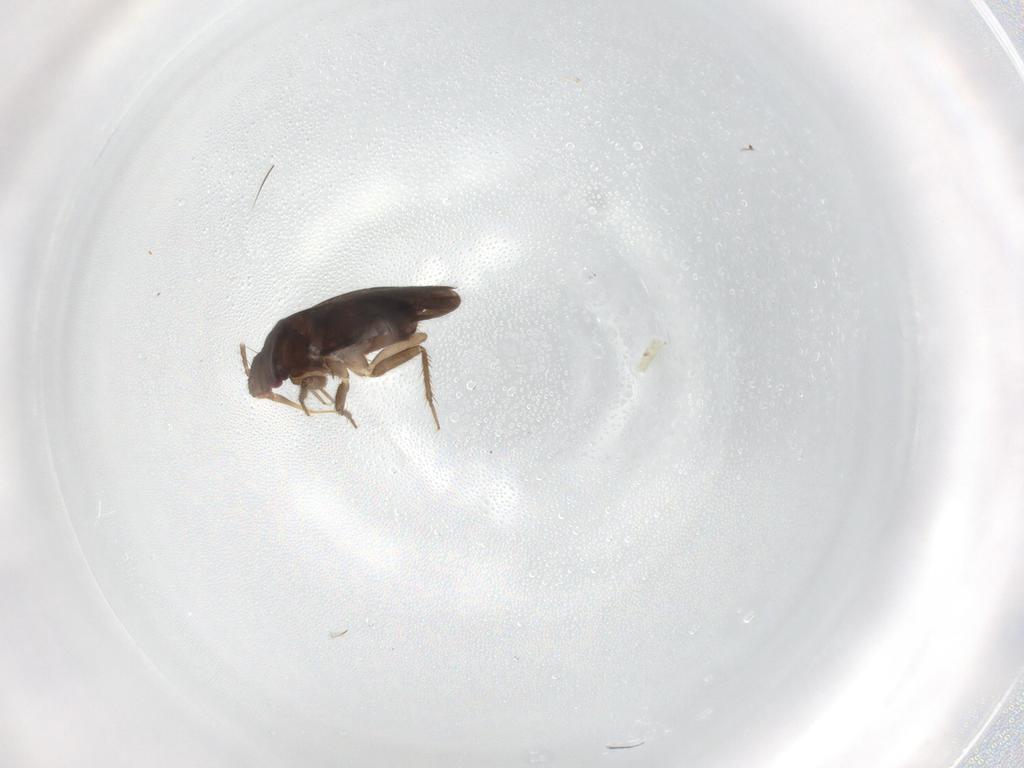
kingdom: Animalia
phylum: Arthropoda
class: Insecta
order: Hemiptera
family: Ceratocombidae
